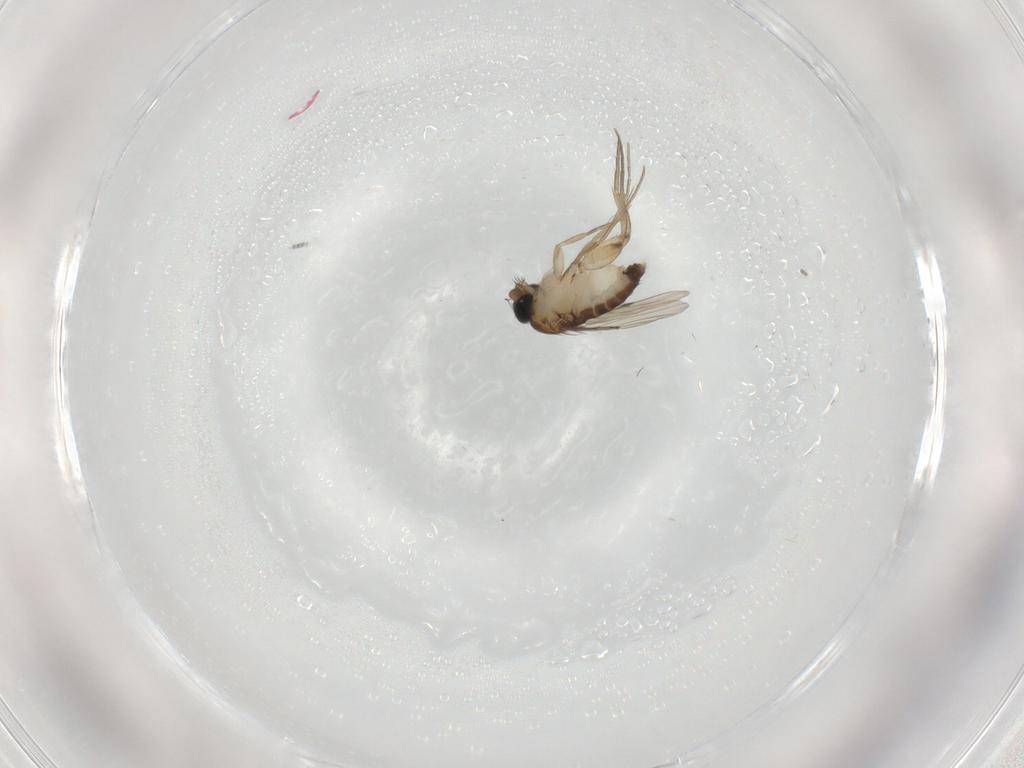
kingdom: Animalia
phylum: Arthropoda
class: Insecta
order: Diptera
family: Phoridae
